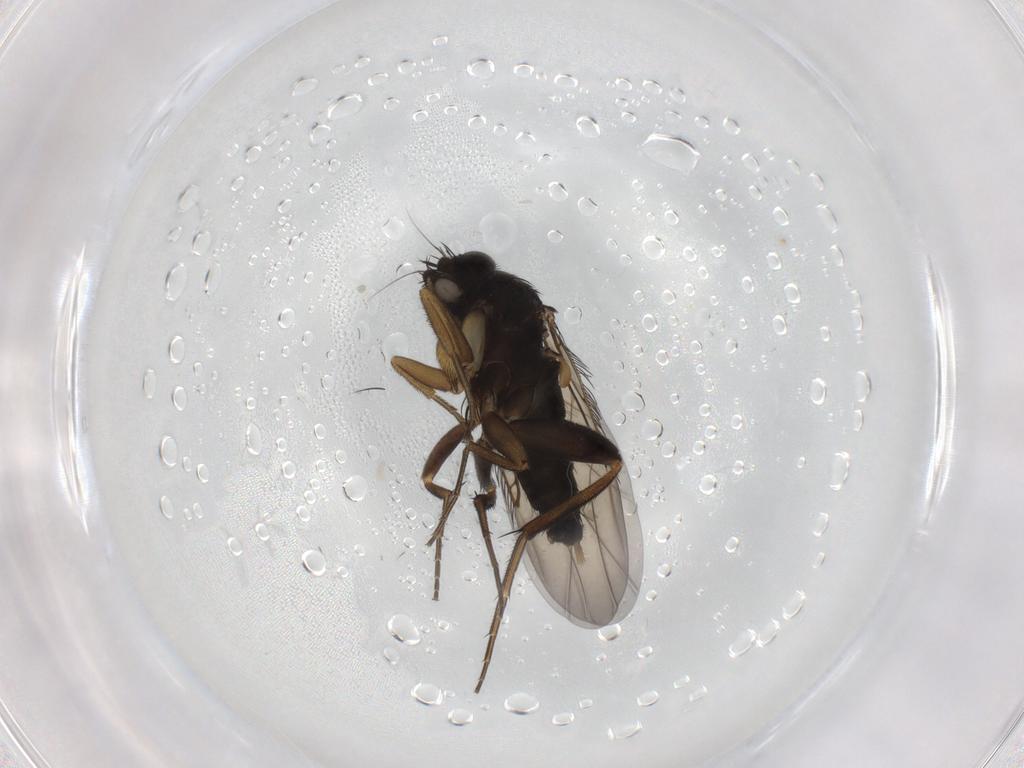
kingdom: Animalia
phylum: Arthropoda
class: Insecta
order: Diptera
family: Phoridae
